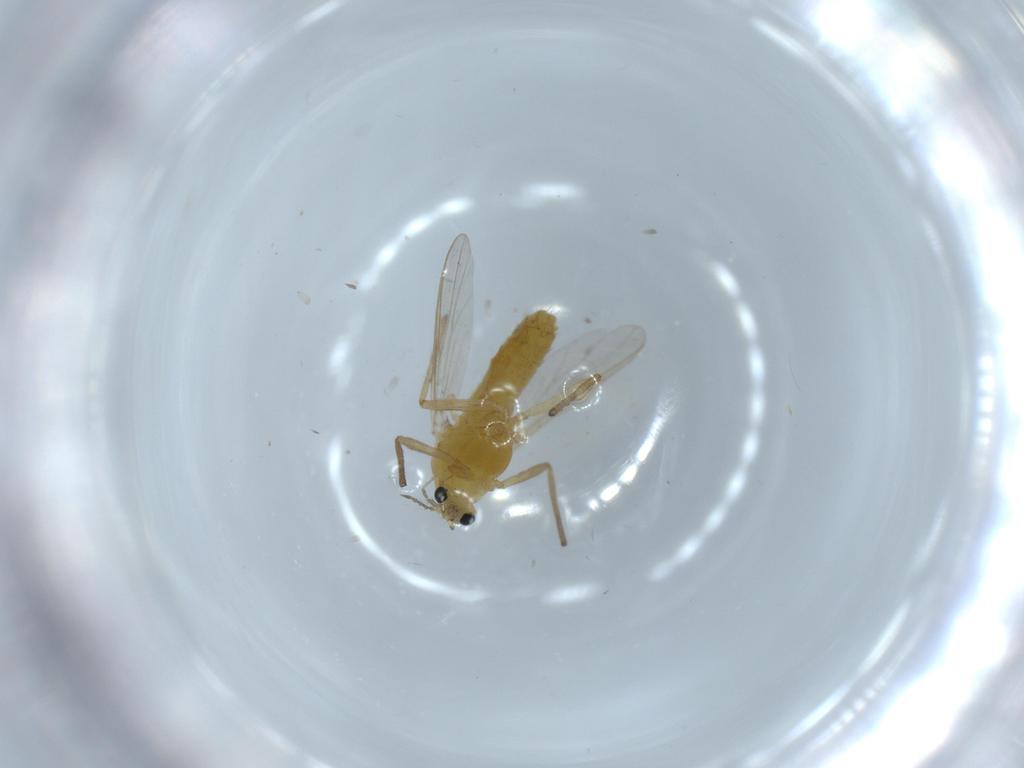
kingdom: Animalia
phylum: Arthropoda
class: Insecta
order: Diptera
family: Chironomidae
